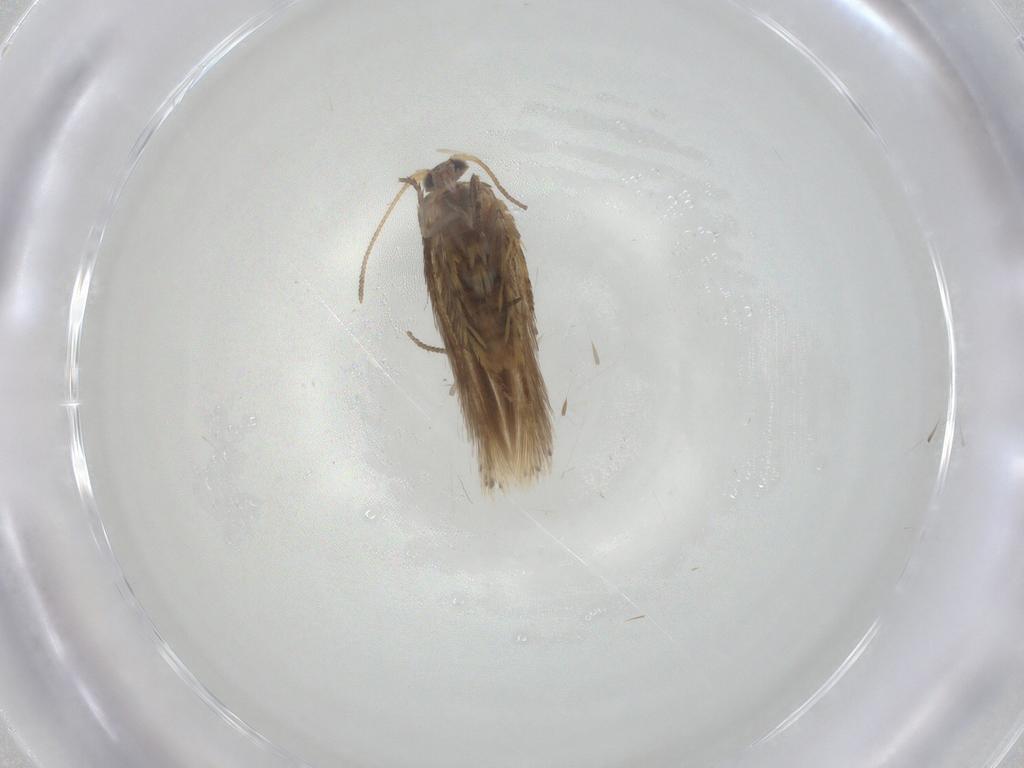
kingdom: Animalia
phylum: Arthropoda
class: Insecta
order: Lepidoptera
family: Nepticulidae
